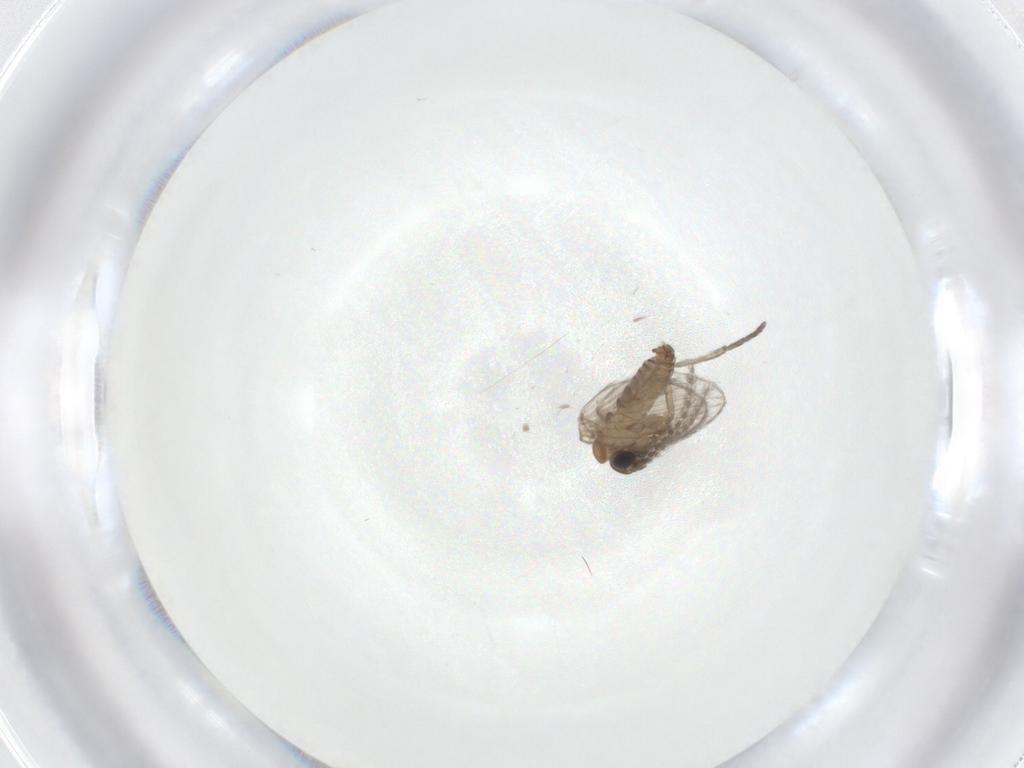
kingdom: Animalia
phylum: Arthropoda
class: Insecta
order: Diptera
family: Psychodidae
